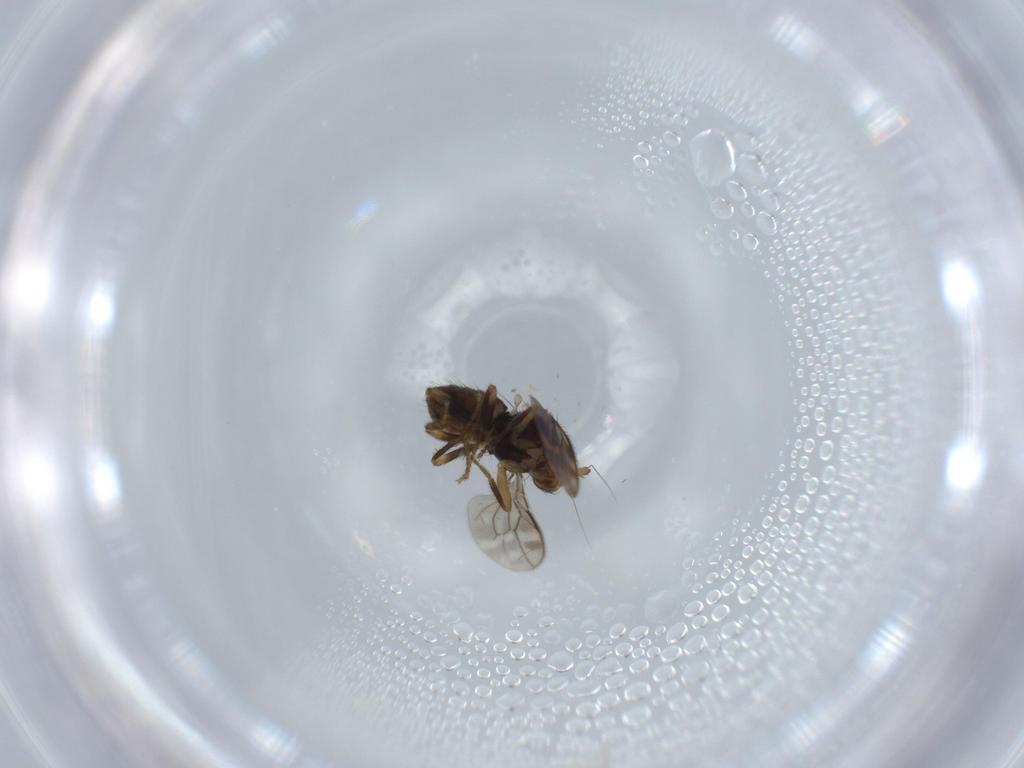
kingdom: Animalia
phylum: Arthropoda
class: Insecta
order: Diptera
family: Sphaeroceridae
